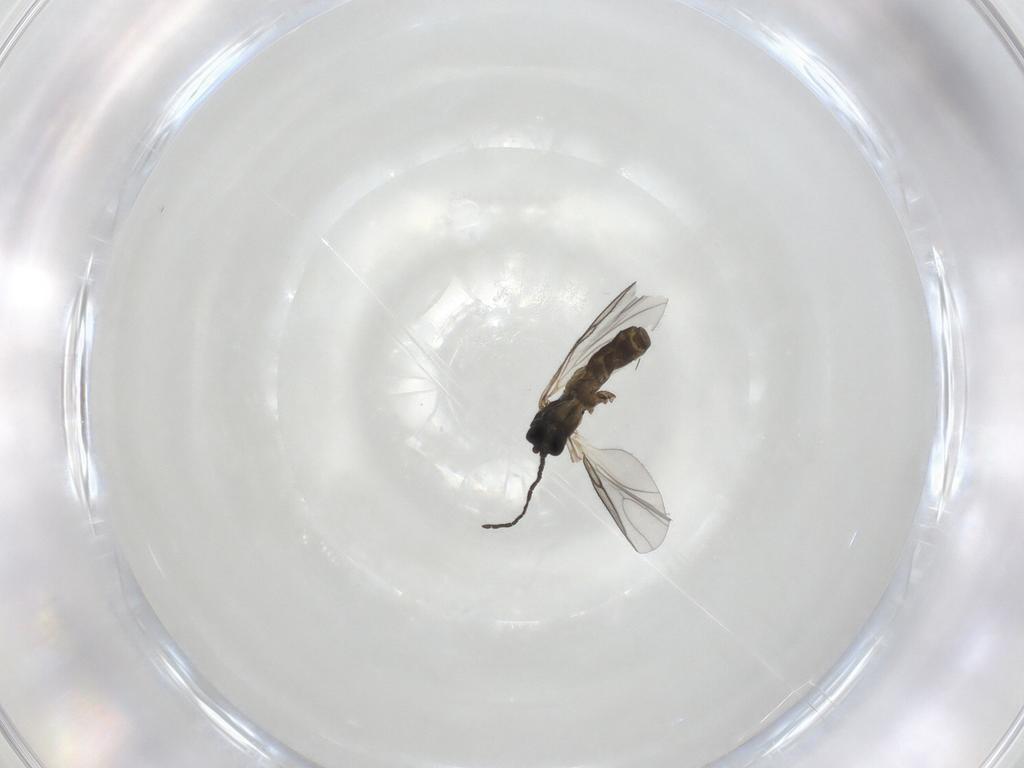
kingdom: Animalia
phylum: Arthropoda
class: Insecta
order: Diptera
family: Sciaridae
